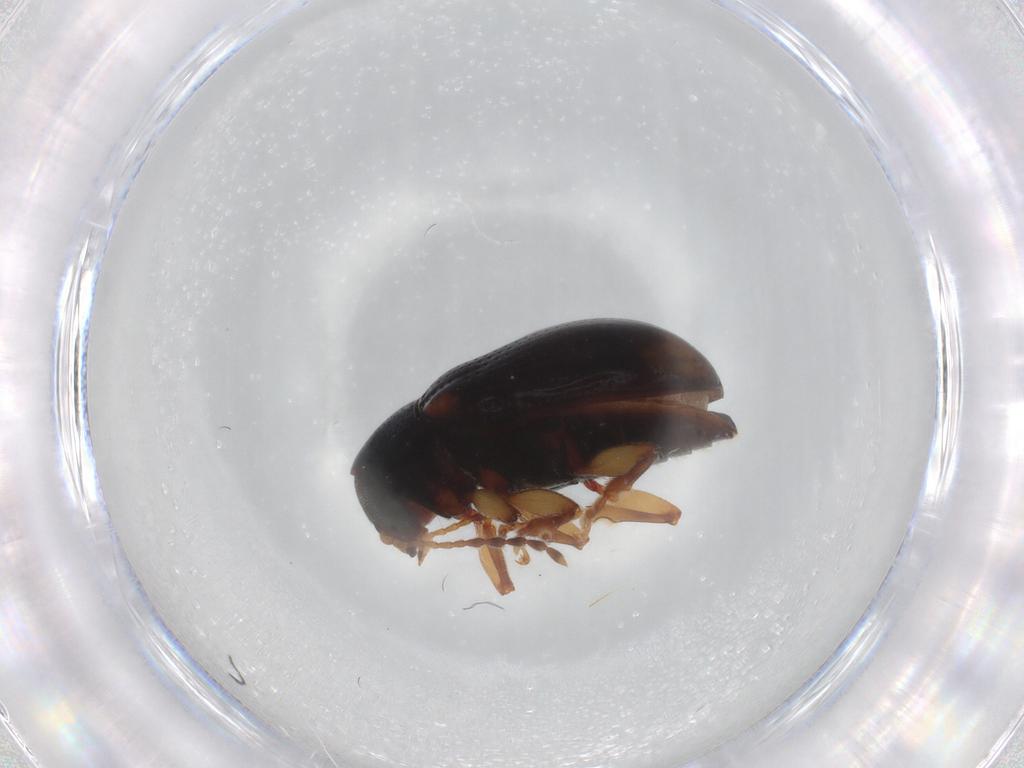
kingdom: Animalia
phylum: Arthropoda
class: Insecta
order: Coleoptera
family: Chrysomelidae
